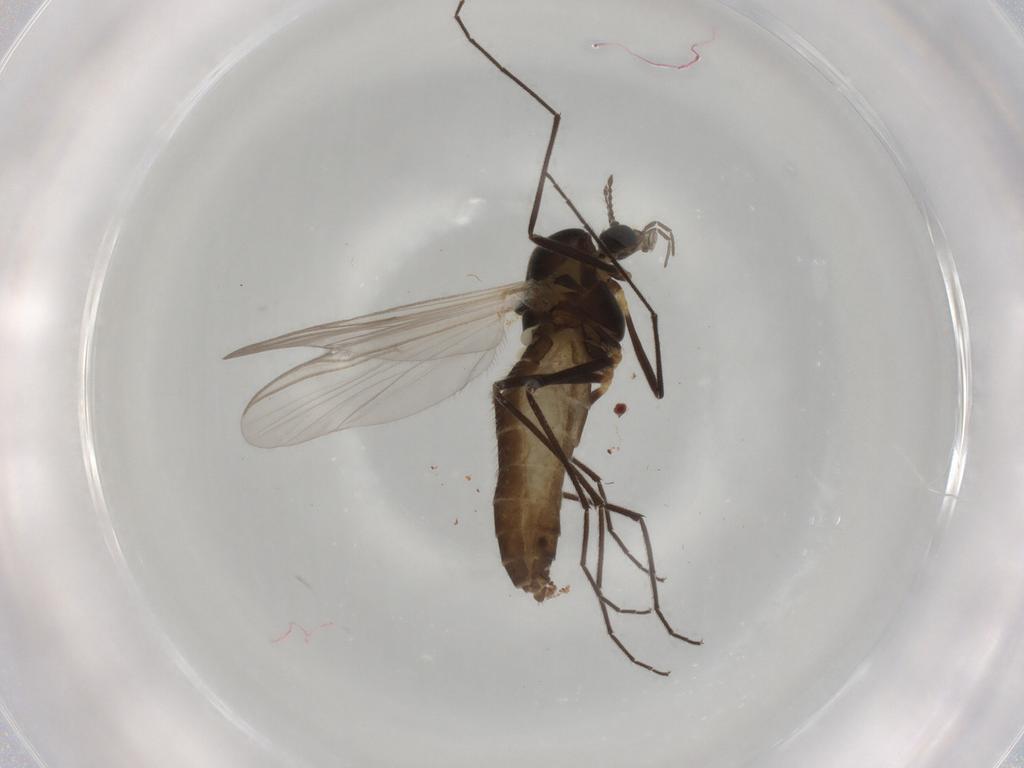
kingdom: Animalia
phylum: Arthropoda
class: Insecta
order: Diptera
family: Chironomidae
